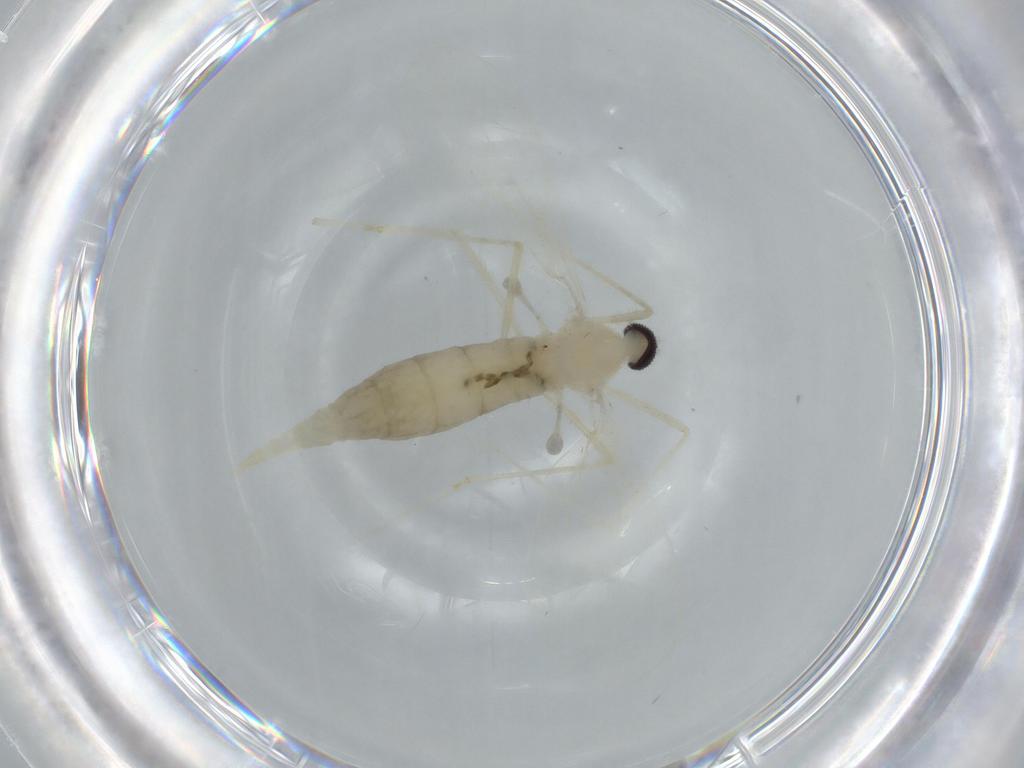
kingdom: Animalia
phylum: Arthropoda
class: Insecta
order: Diptera
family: Cecidomyiidae
